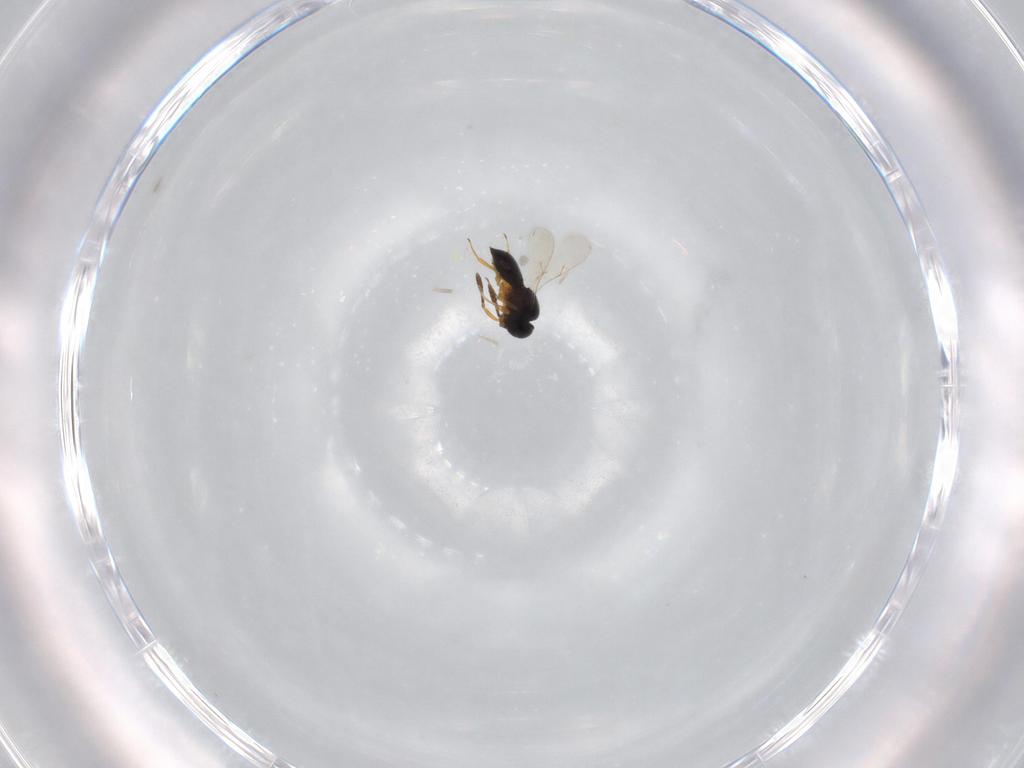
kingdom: Animalia
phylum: Arthropoda
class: Insecta
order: Hymenoptera
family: Scelionidae
